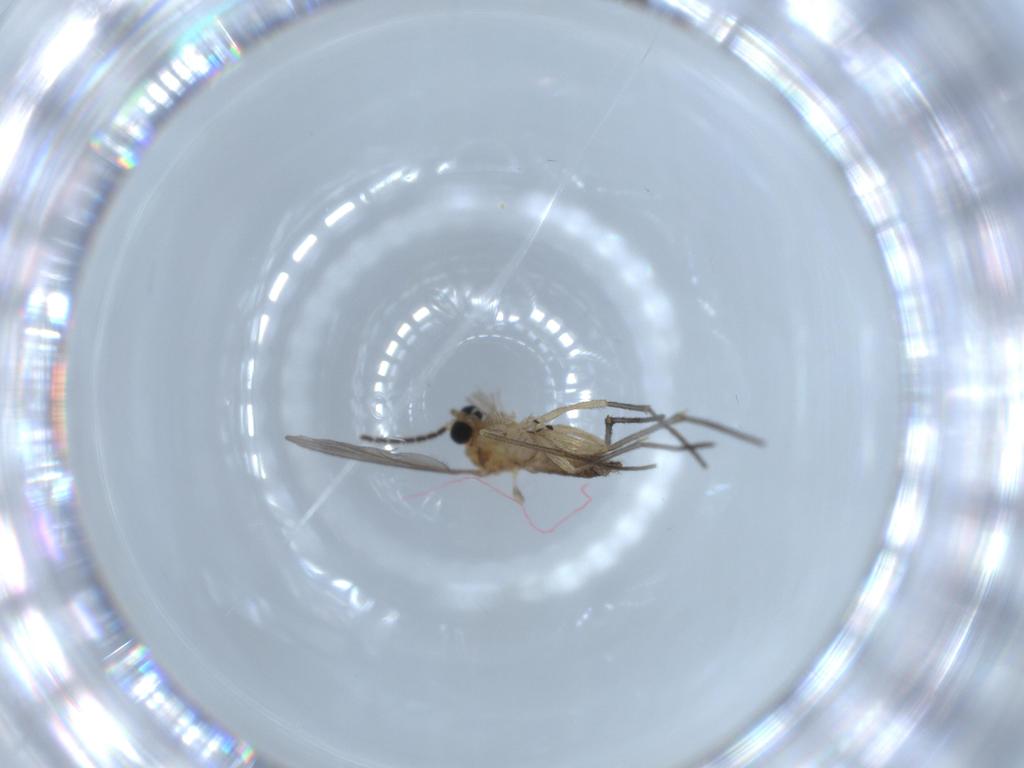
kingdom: Animalia
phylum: Arthropoda
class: Insecta
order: Diptera
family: Sciaridae
